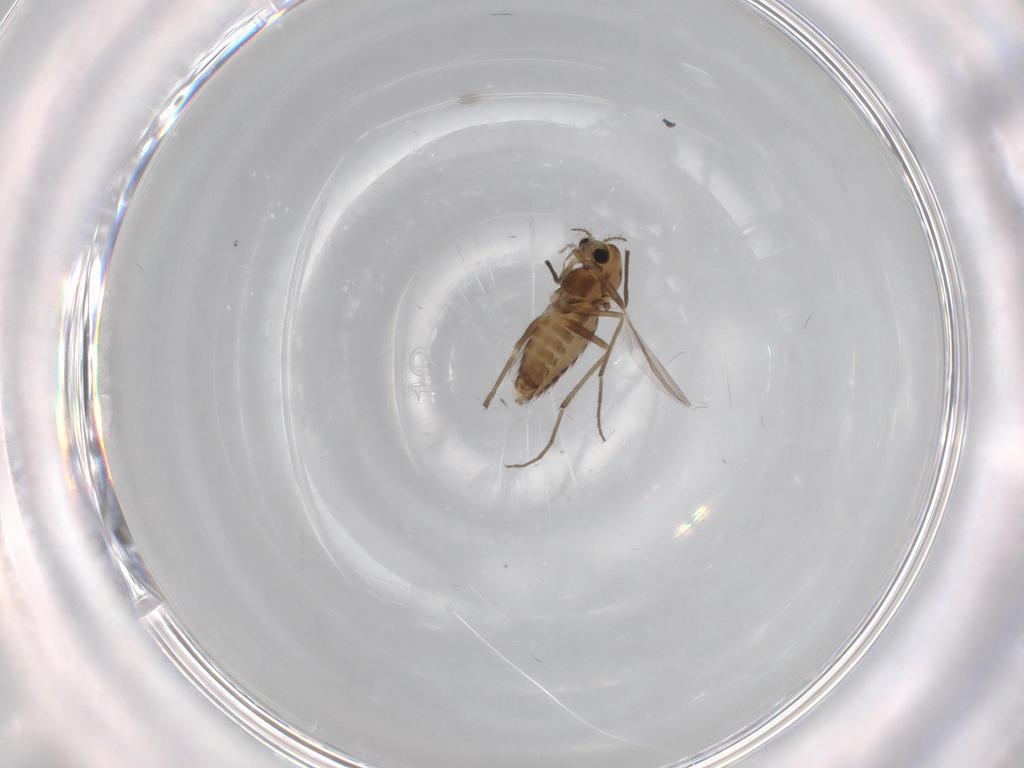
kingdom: Animalia
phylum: Arthropoda
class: Insecta
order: Diptera
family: Chironomidae
